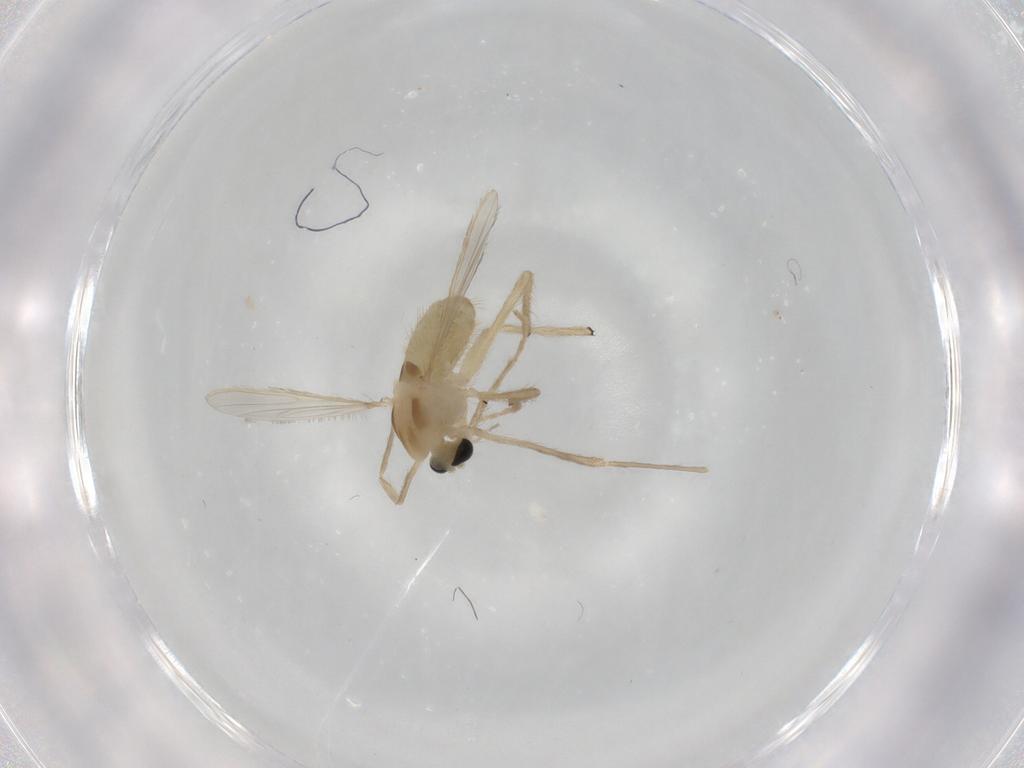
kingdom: Animalia
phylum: Arthropoda
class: Insecta
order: Diptera
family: Chironomidae
